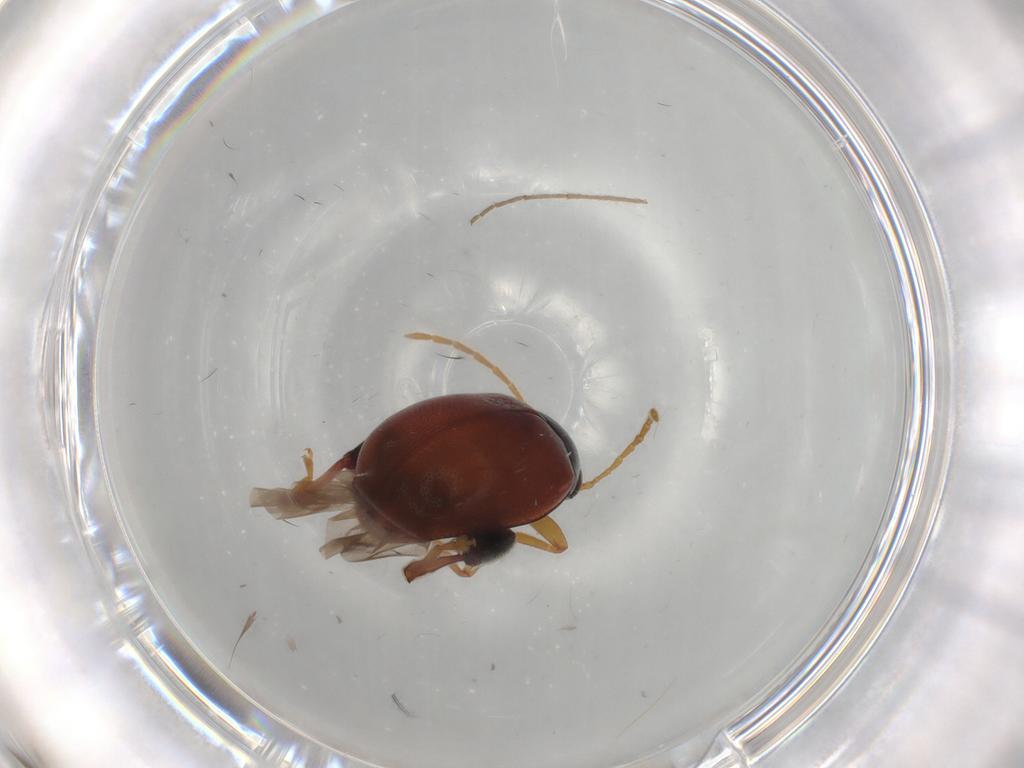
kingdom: Animalia
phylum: Arthropoda
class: Insecta
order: Coleoptera
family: Chrysomelidae
